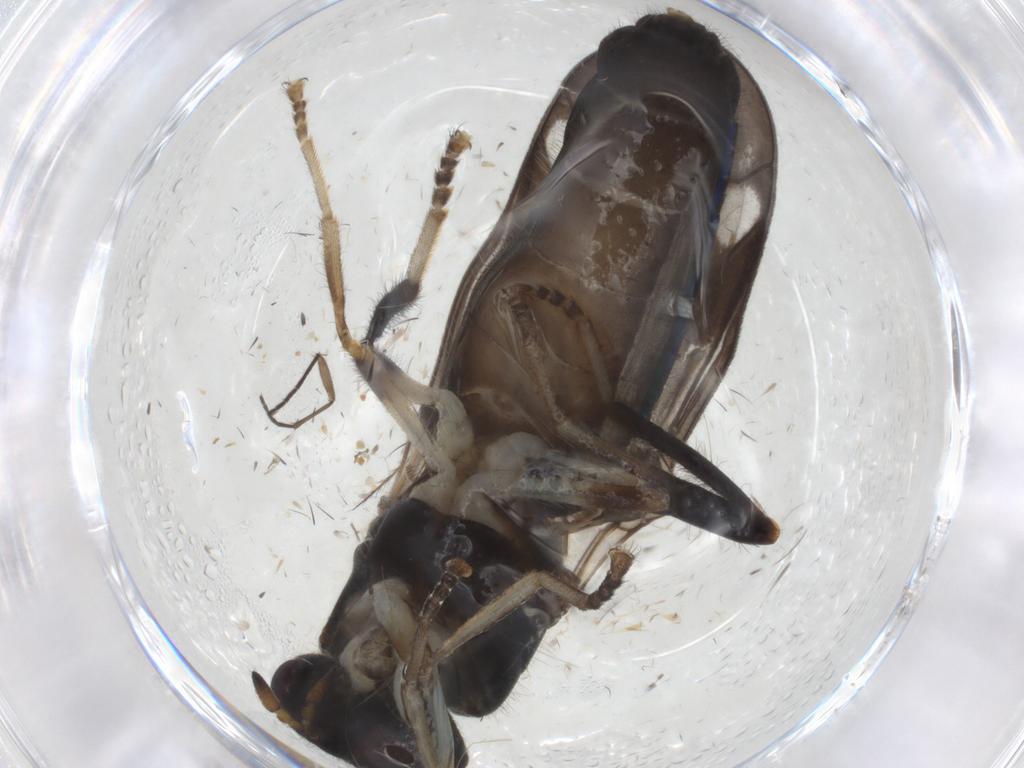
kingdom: Animalia
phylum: Arthropoda
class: Insecta
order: Diptera
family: Stratiomyidae
